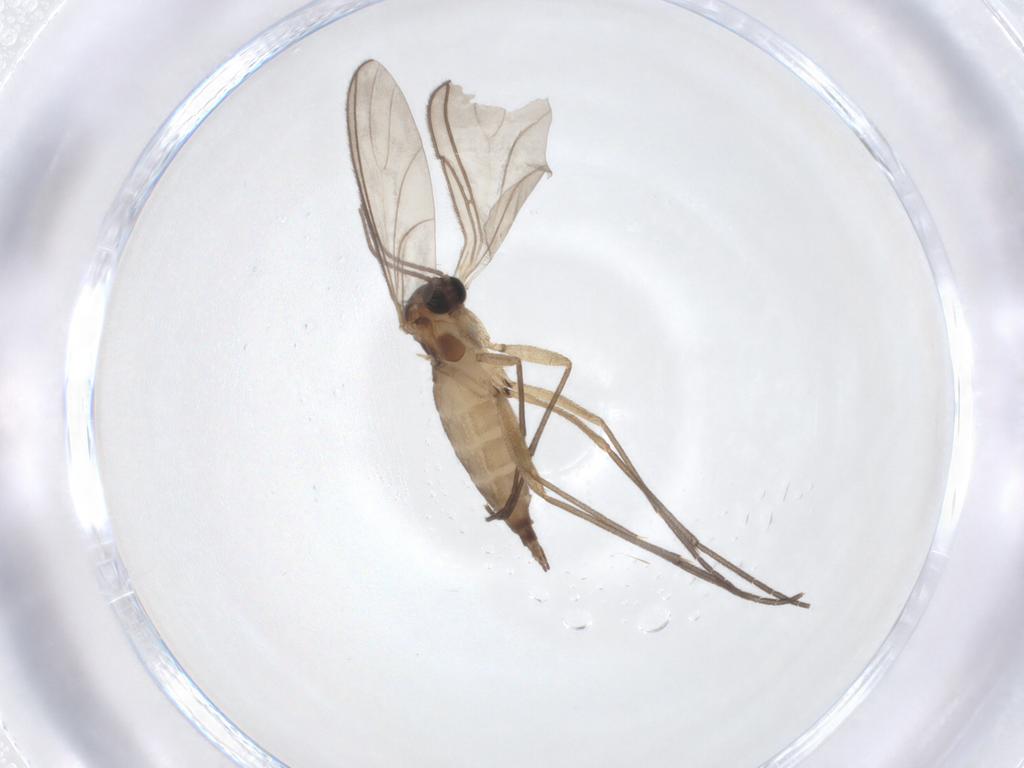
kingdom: Animalia
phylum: Arthropoda
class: Insecta
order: Diptera
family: Sciaridae
